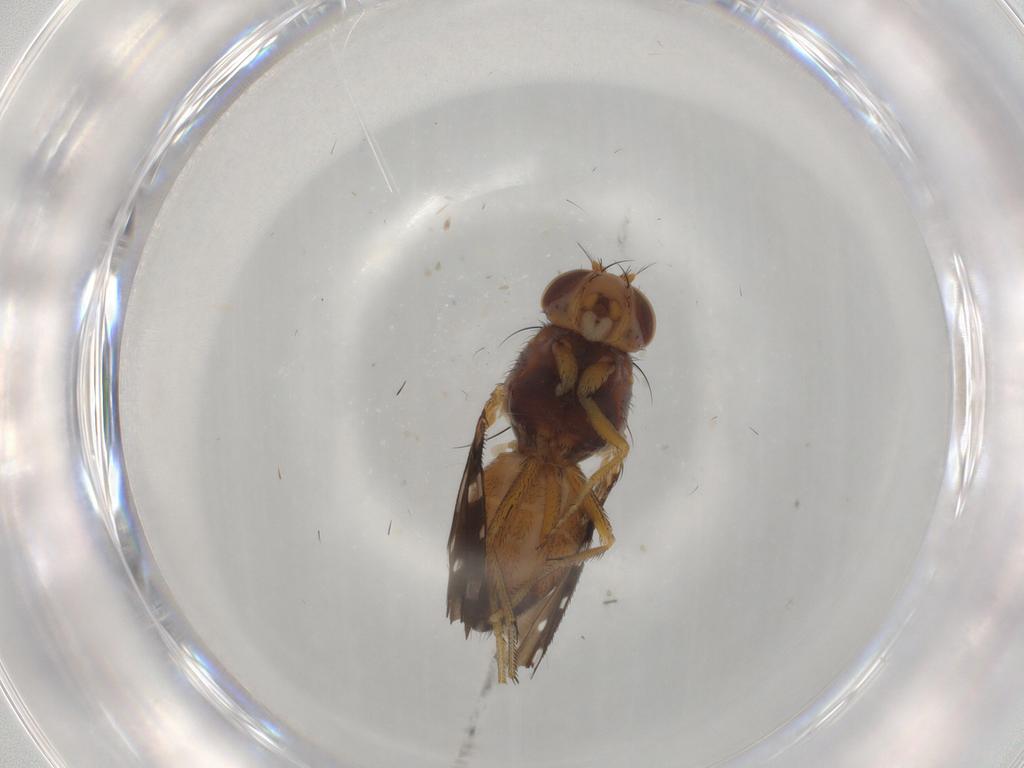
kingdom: Animalia
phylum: Arthropoda
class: Insecta
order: Diptera
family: Ephydridae
